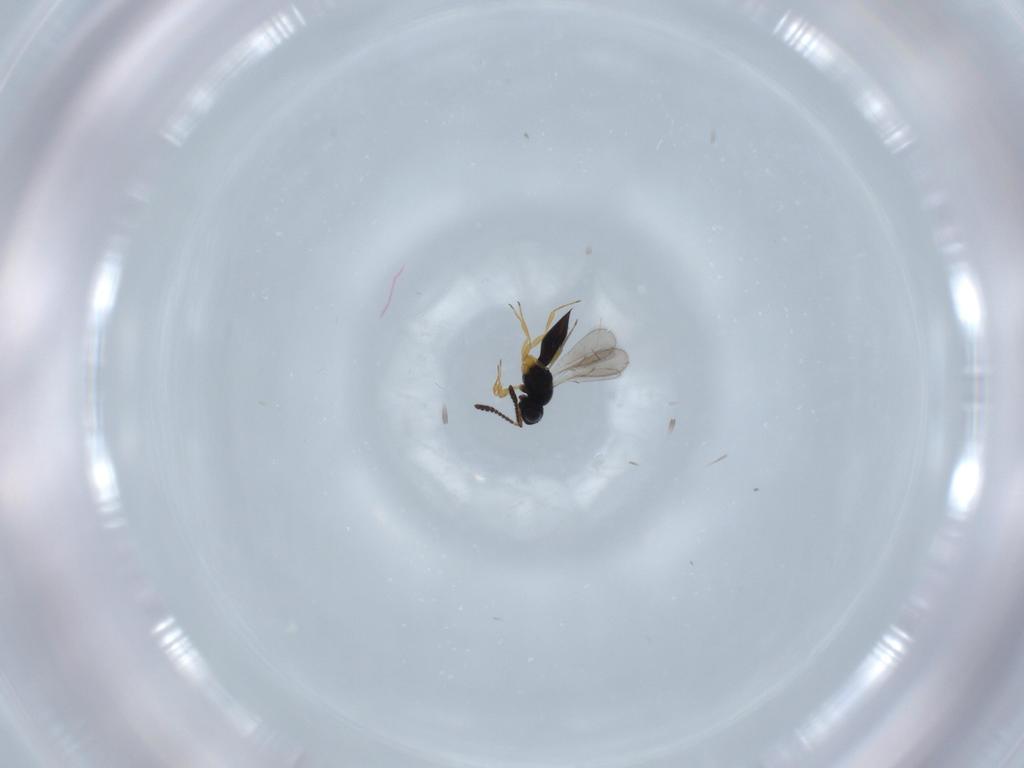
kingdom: Animalia
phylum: Arthropoda
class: Insecta
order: Hymenoptera
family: Scelionidae
